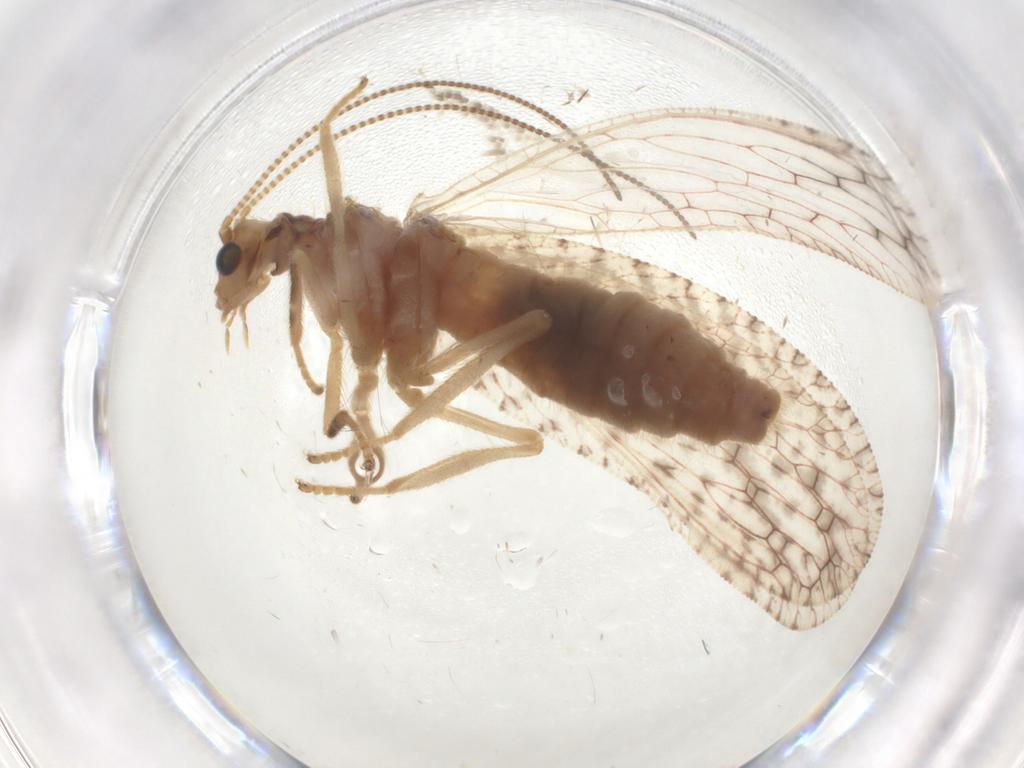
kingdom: Animalia
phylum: Arthropoda
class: Insecta
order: Neuroptera
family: Hemerobiidae
